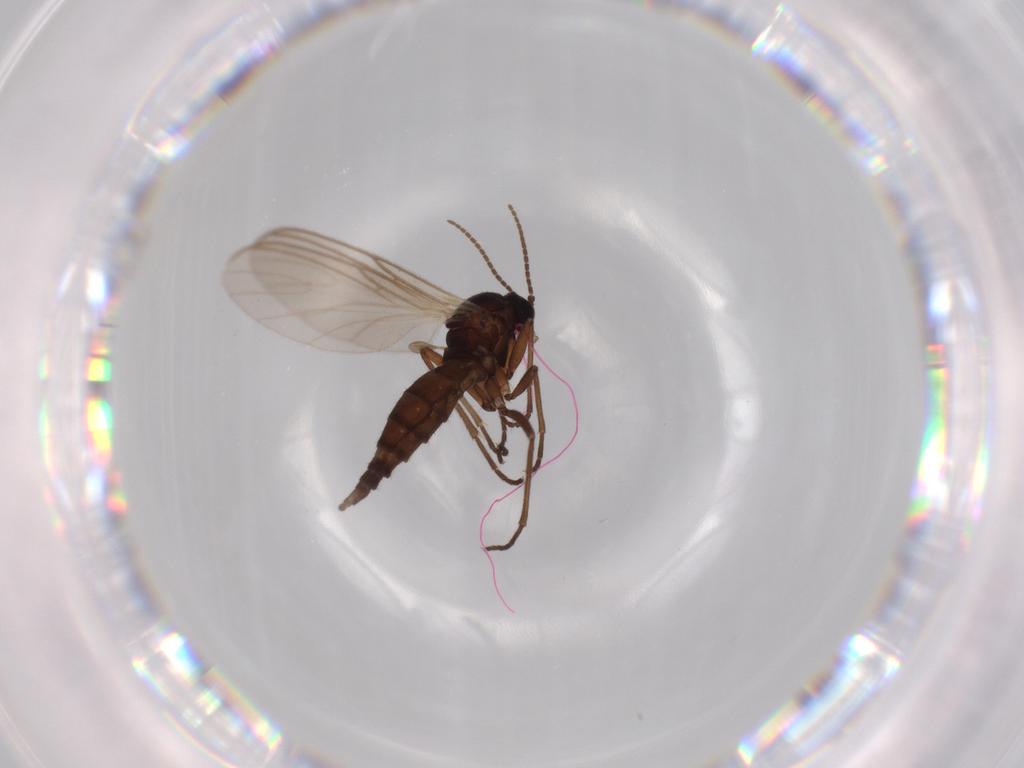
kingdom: Animalia
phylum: Arthropoda
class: Insecta
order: Diptera
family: Sciaridae
